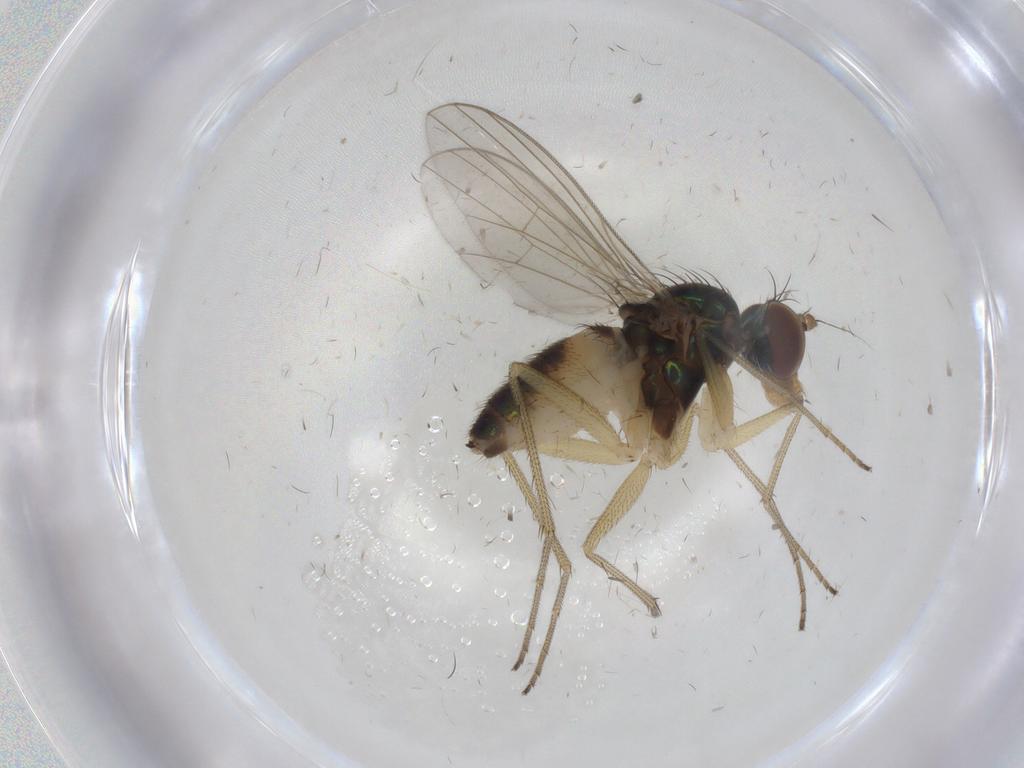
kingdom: Animalia
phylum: Arthropoda
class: Insecta
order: Diptera
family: Dolichopodidae
